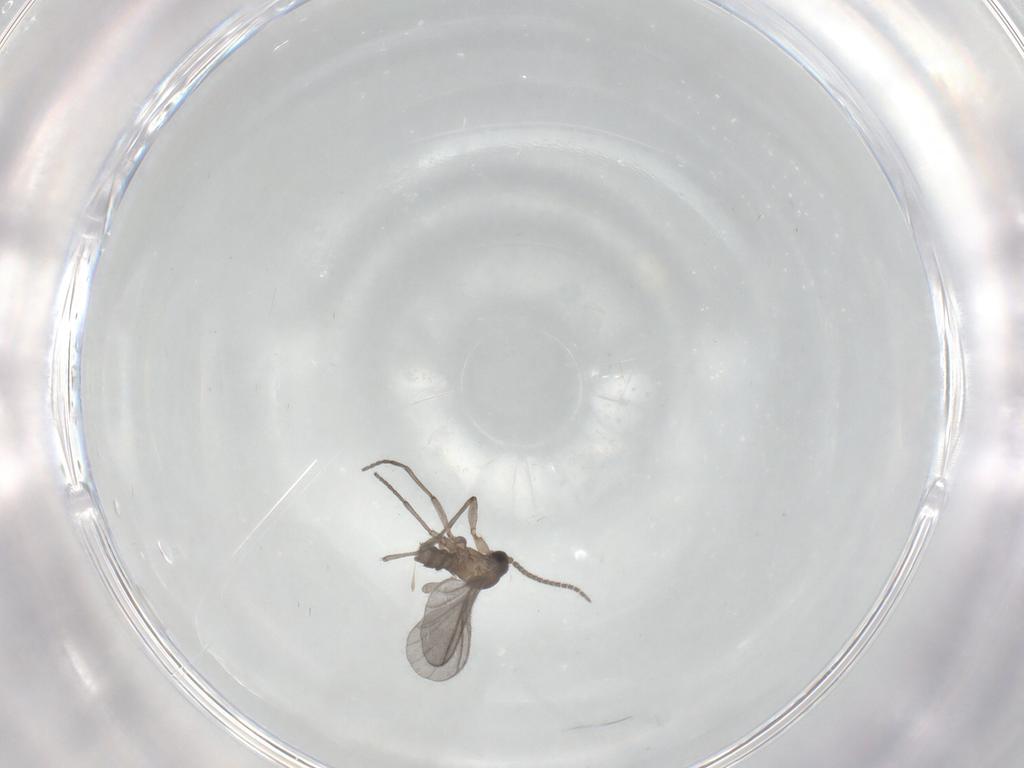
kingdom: Animalia
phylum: Arthropoda
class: Insecta
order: Diptera
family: Sciaridae
